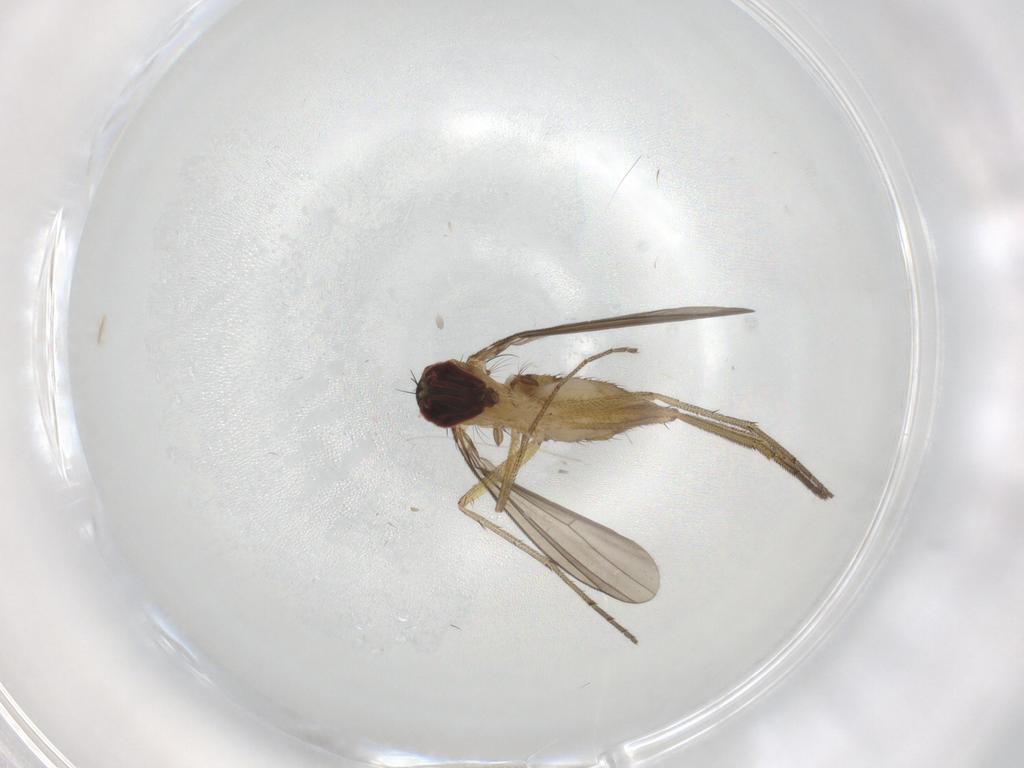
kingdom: Animalia
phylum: Arthropoda
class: Insecta
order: Diptera
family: Dolichopodidae
